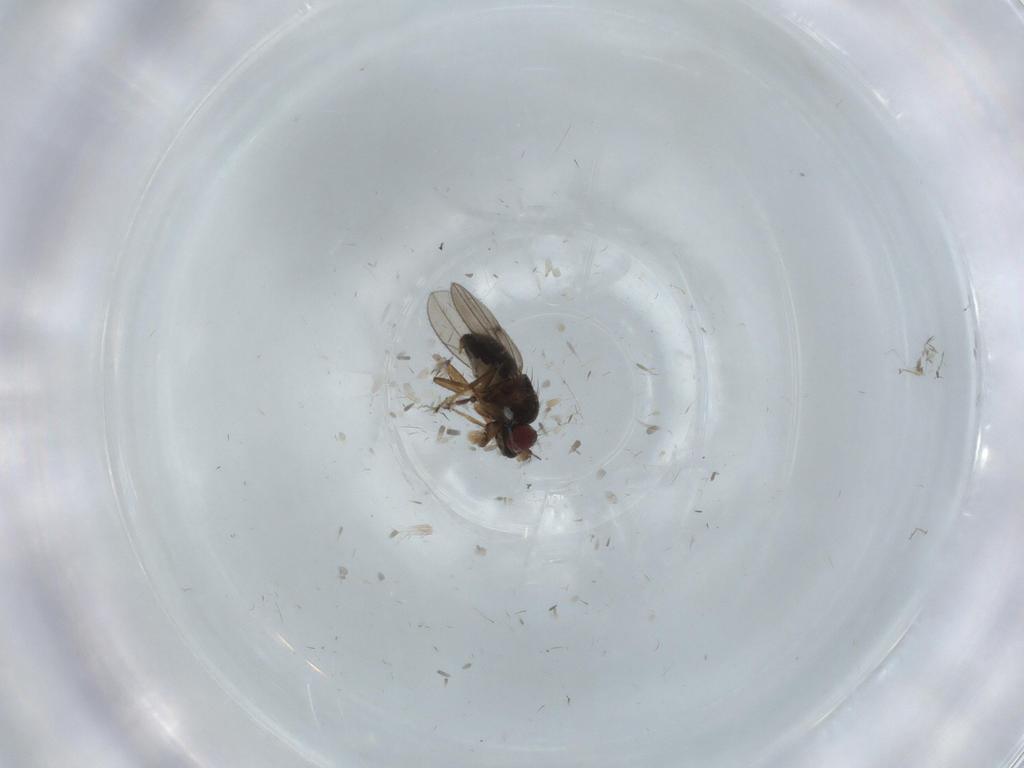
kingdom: Animalia
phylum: Arthropoda
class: Insecta
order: Diptera
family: Ephydridae
